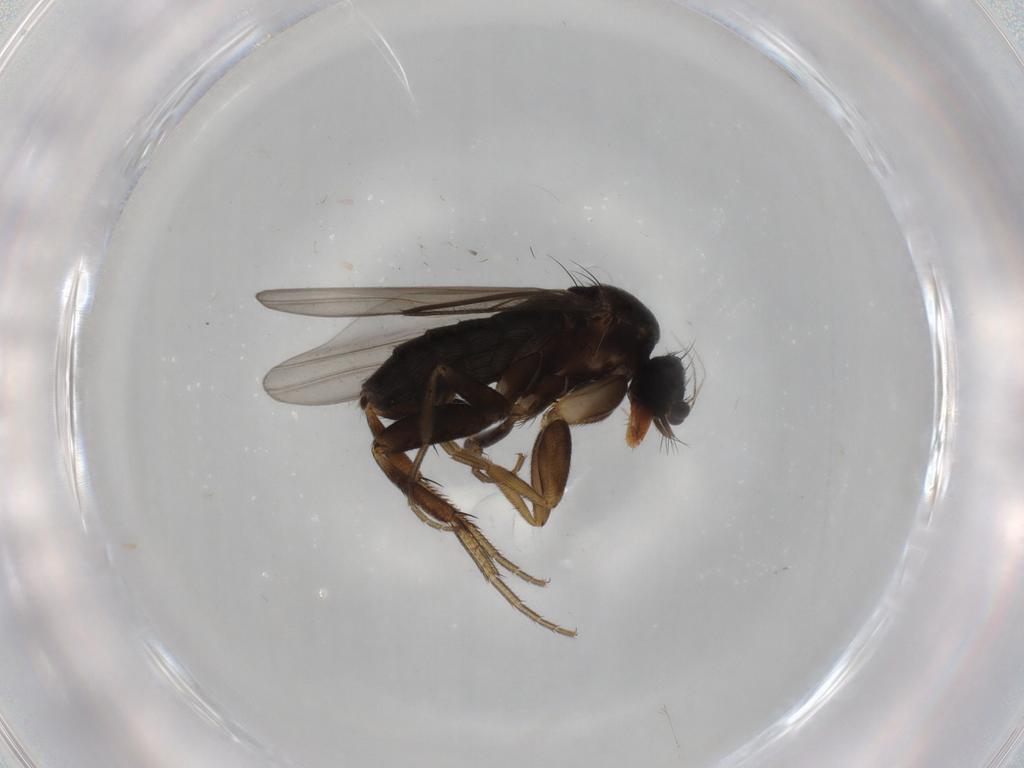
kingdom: Animalia
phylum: Arthropoda
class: Insecta
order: Diptera
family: Phoridae
